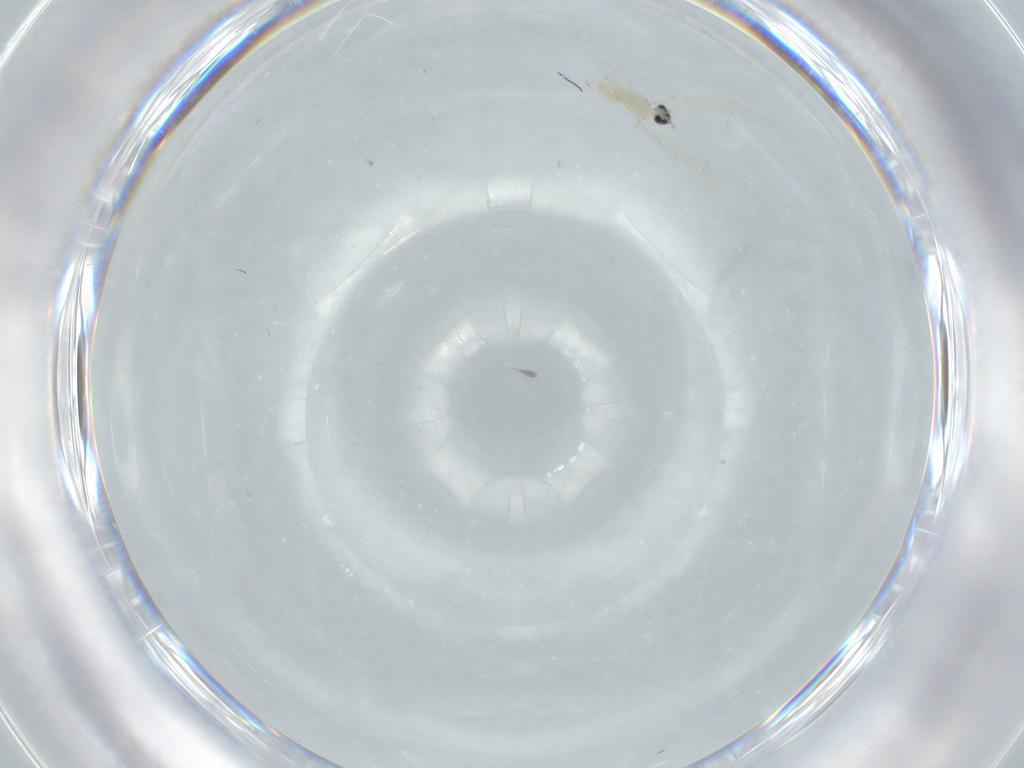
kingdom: Animalia
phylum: Arthropoda
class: Insecta
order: Diptera
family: Cecidomyiidae
